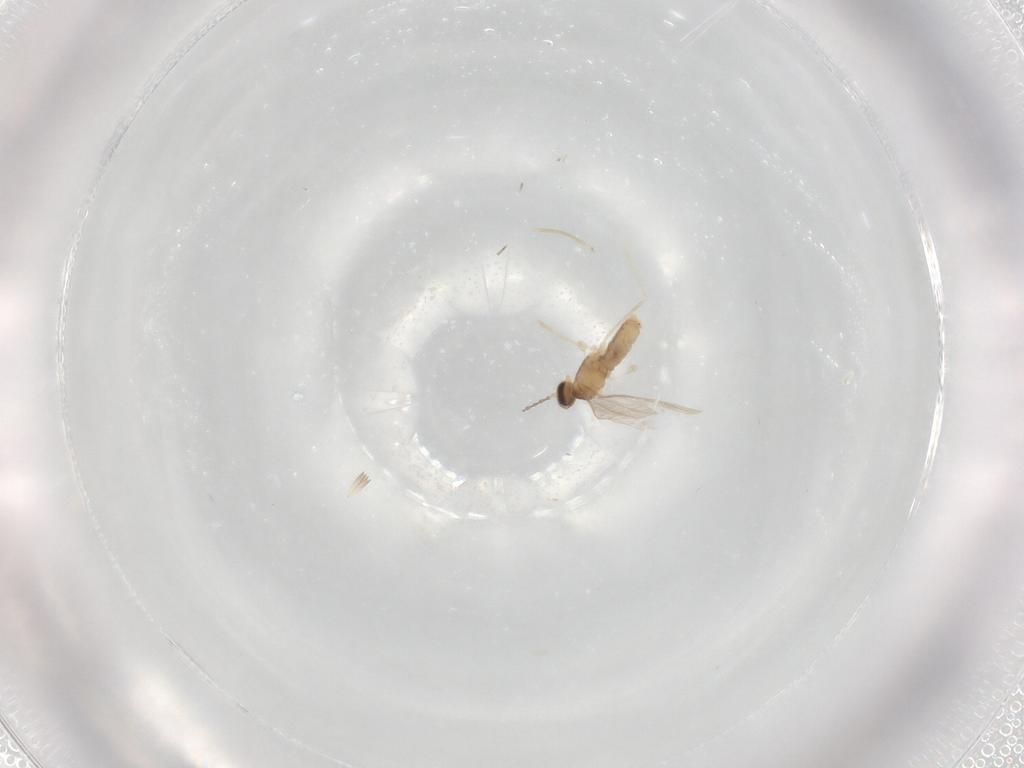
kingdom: Animalia
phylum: Arthropoda
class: Insecta
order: Diptera
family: Cecidomyiidae
